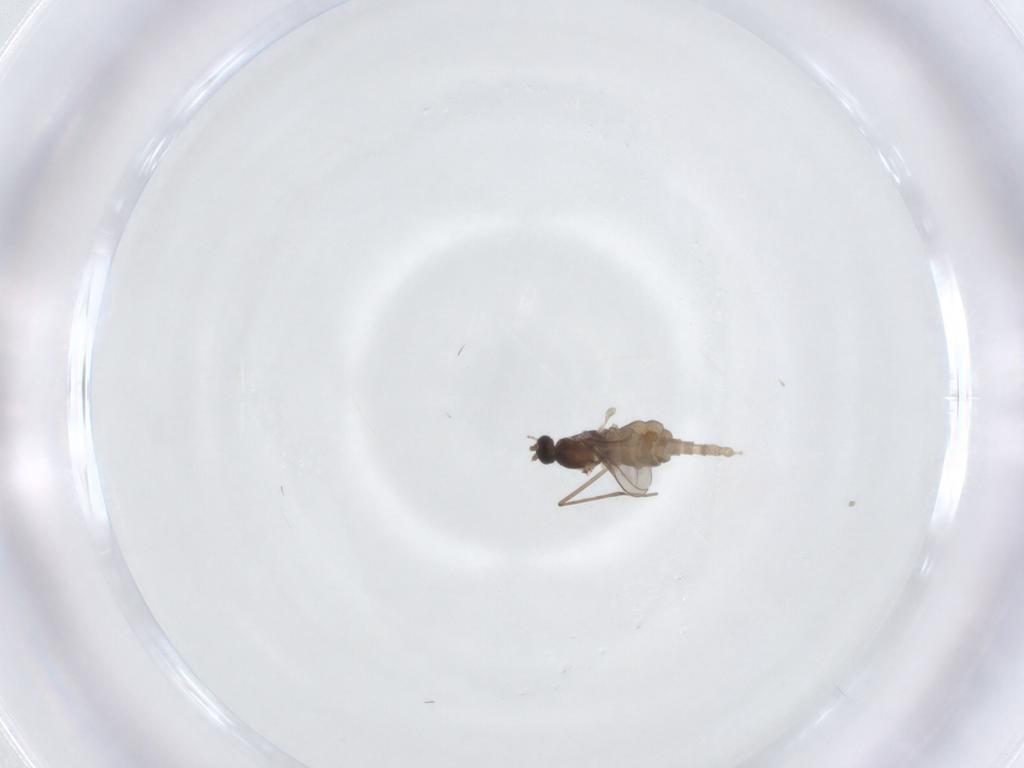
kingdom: Animalia
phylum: Arthropoda
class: Insecta
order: Diptera
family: Cecidomyiidae
